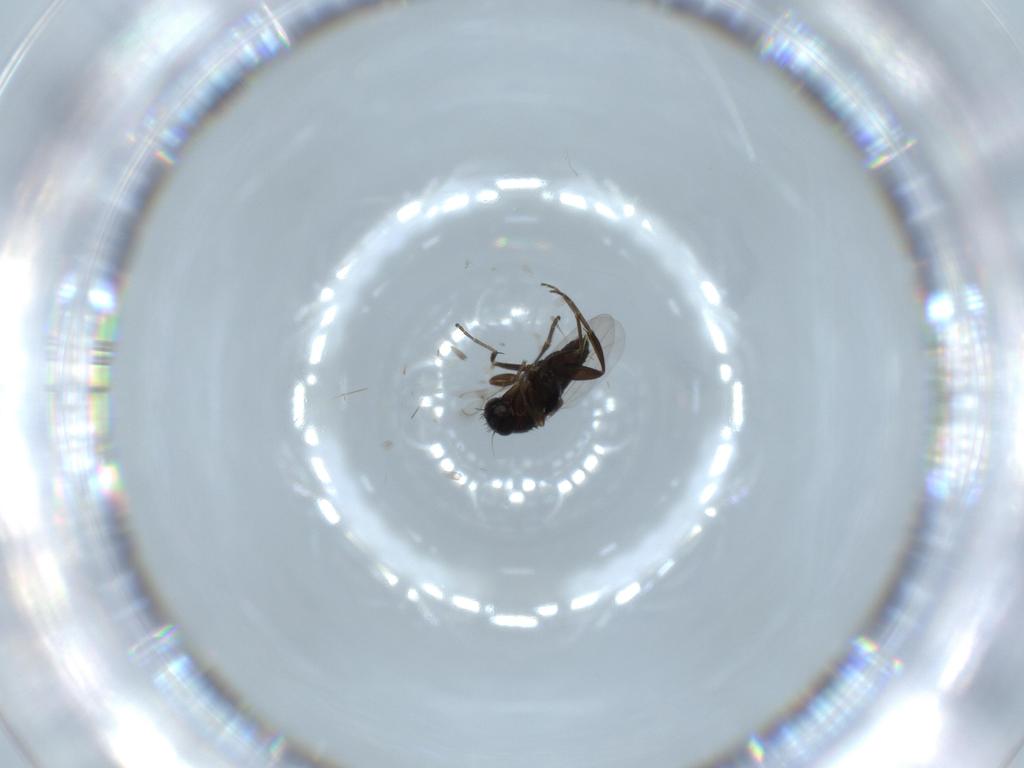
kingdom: Animalia
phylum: Arthropoda
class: Insecta
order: Diptera
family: Phoridae
